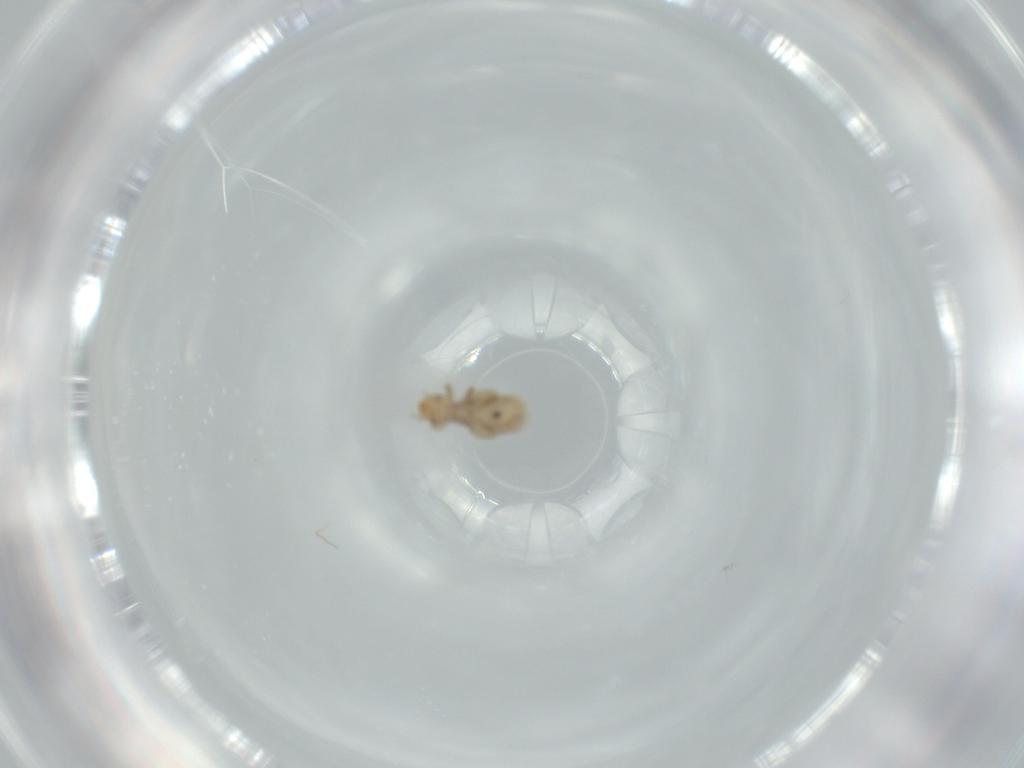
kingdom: Animalia
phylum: Arthropoda
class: Insecta
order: Psocodea
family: Liposcelididae
